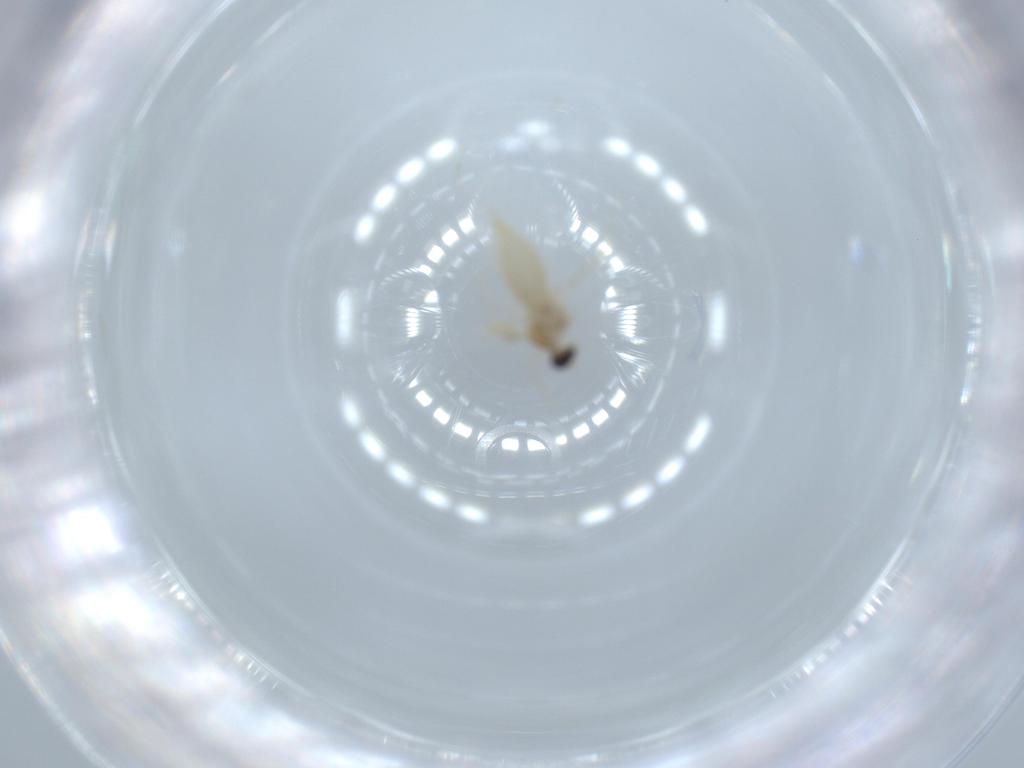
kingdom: Animalia
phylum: Arthropoda
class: Insecta
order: Diptera
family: Cecidomyiidae
